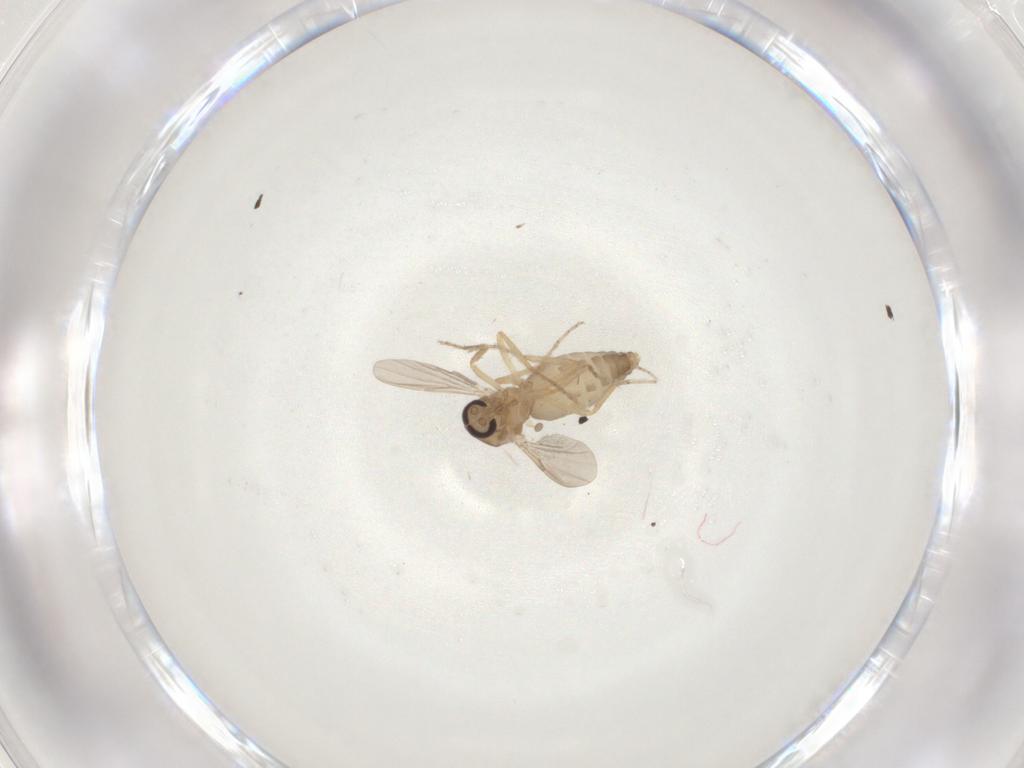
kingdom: Animalia
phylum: Arthropoda
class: Insecta
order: Diptera
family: Ceratopogonidae
